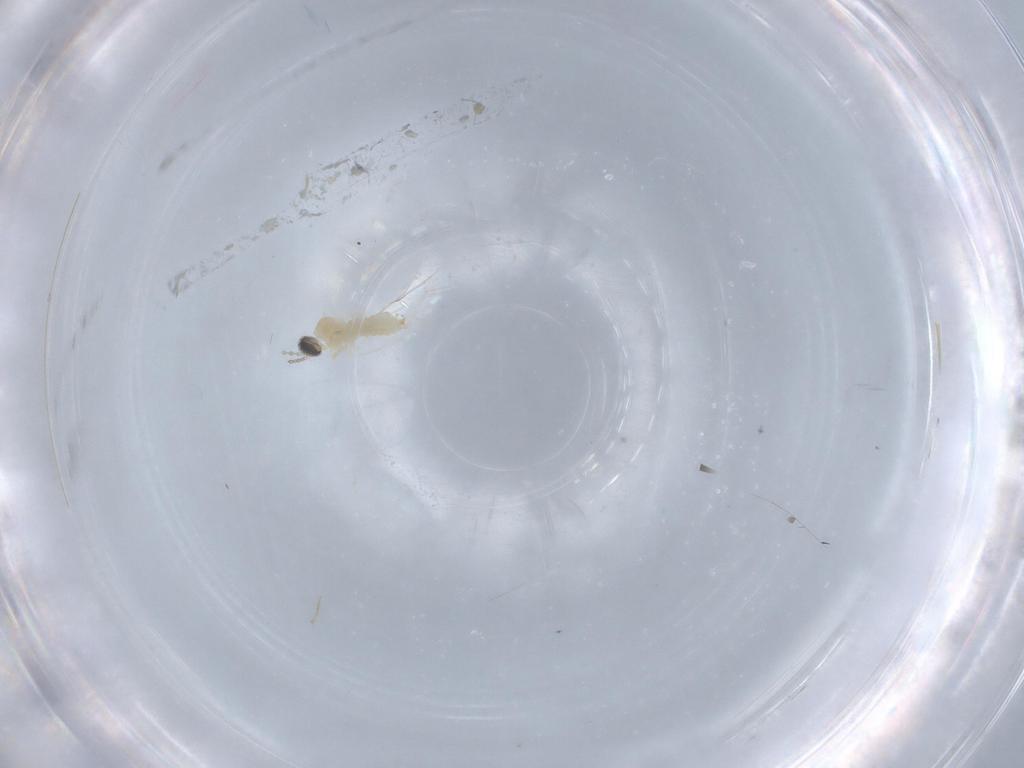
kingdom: Animalia
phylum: Arthropoda
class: Insecta
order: Diptera
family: Cecidomyiidae
